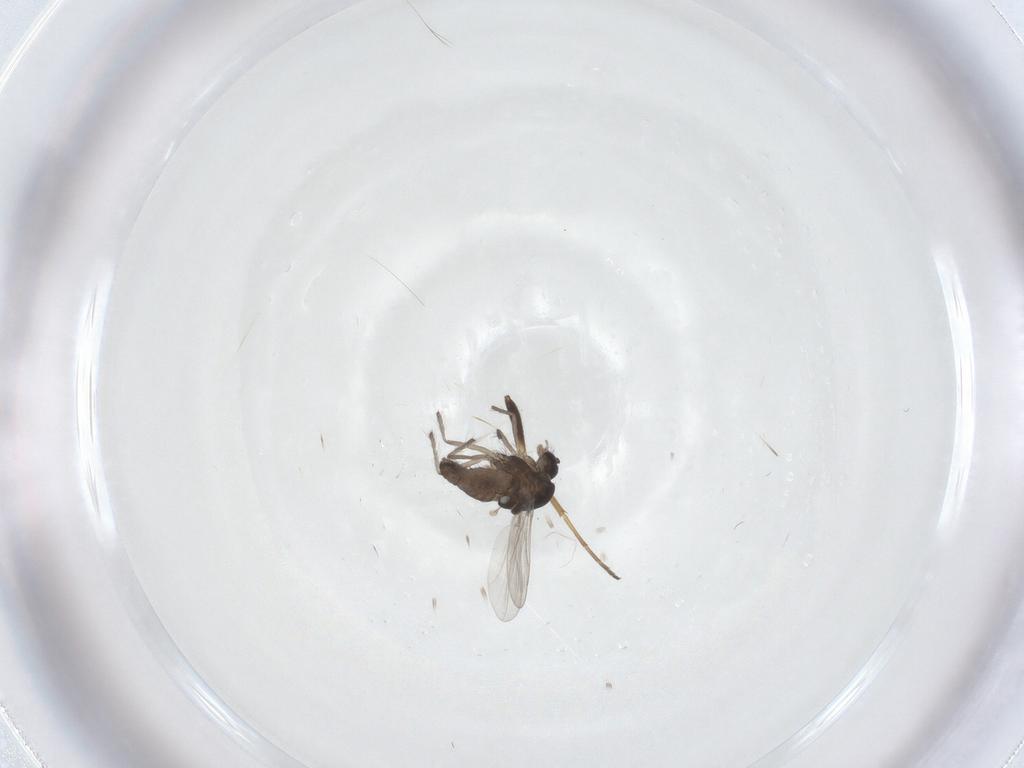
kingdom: Animalia
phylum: Arthropoda
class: Insecta
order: Diptera
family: Chironomidae
